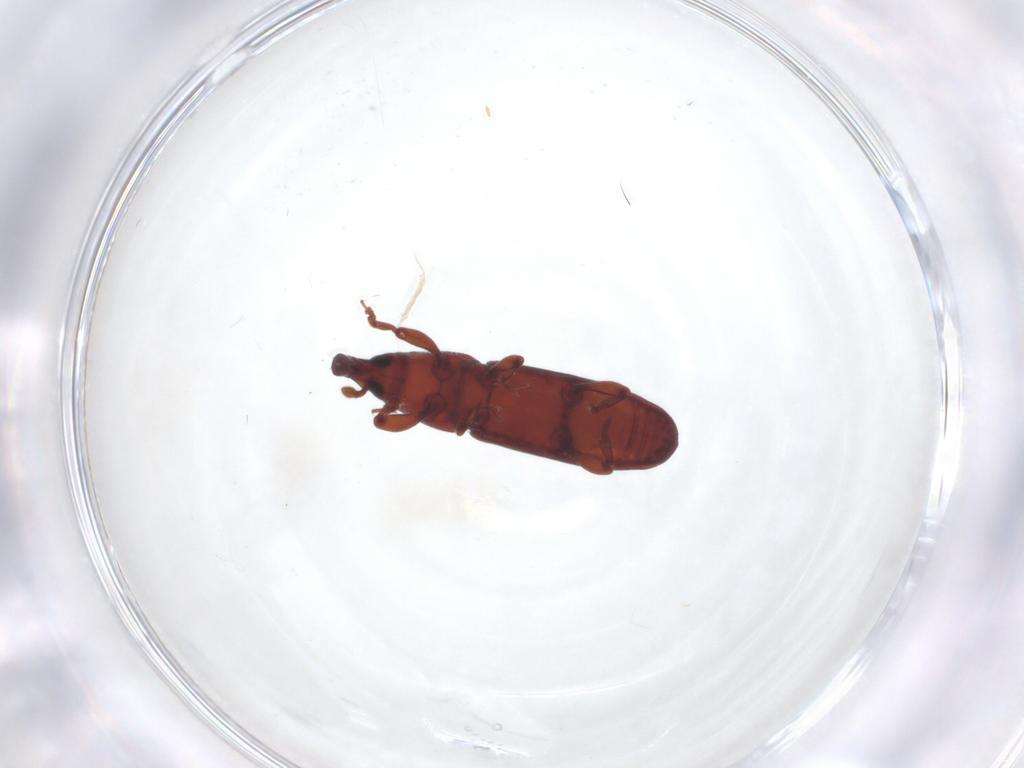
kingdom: Animalia
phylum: Arthropoda
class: Insecta
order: Coleoptera
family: Curculionidae
